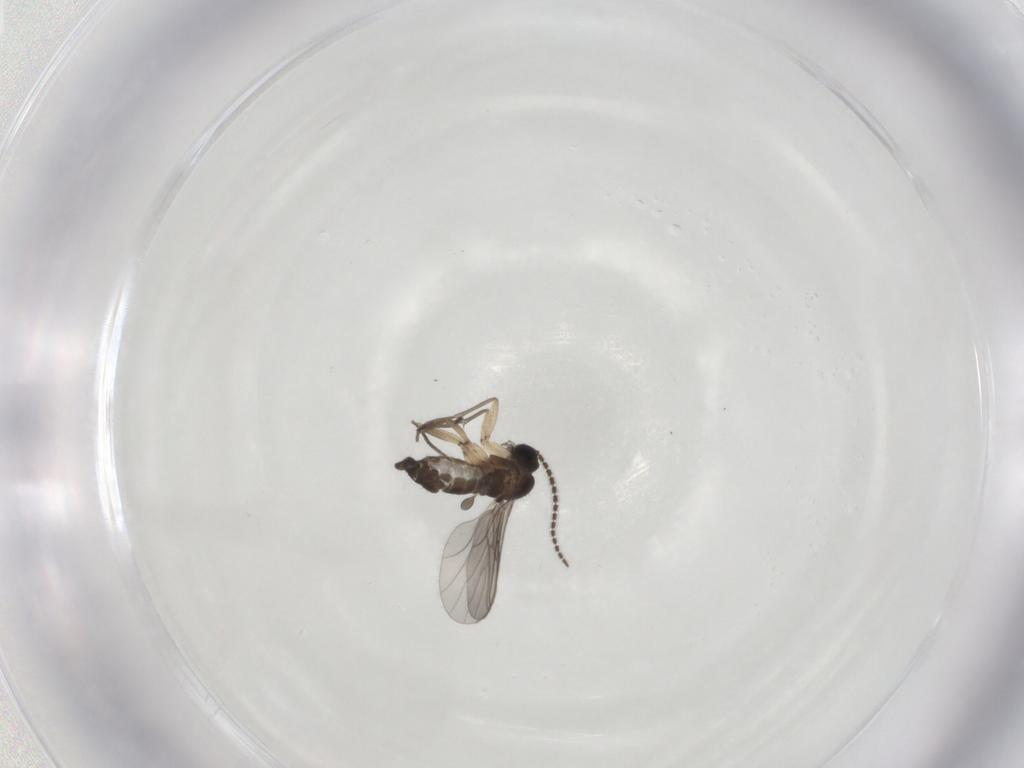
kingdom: Animalia
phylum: Arthropoda
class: Insecta
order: Diptera
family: Sciaridae
